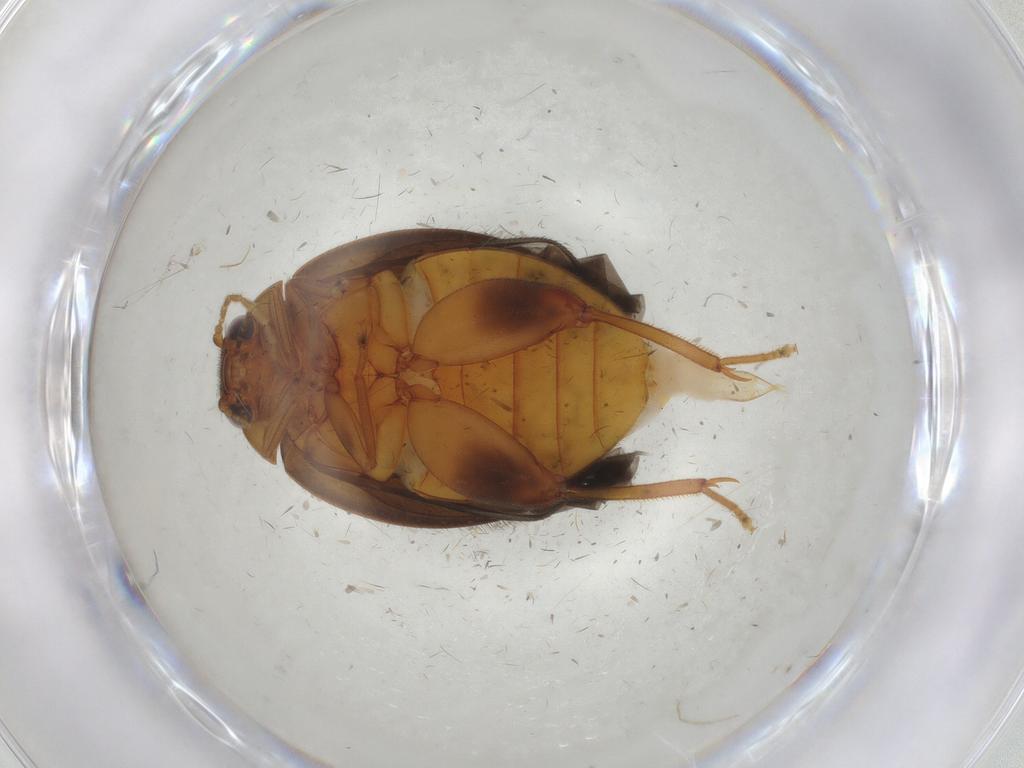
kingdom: Animalia
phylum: Arthropoda
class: Insecta
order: Coleoptera
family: Scirtidae
